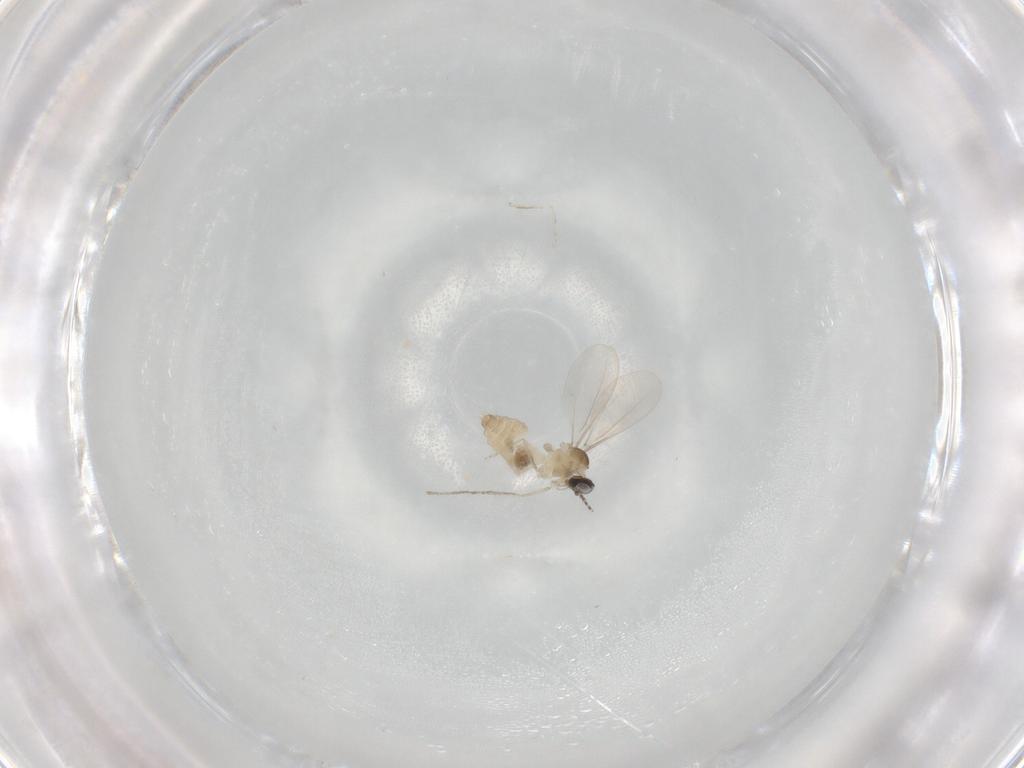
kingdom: Animalia
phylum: Arthropoda
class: Insecta
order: Diptera
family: Cecidomyiidae
